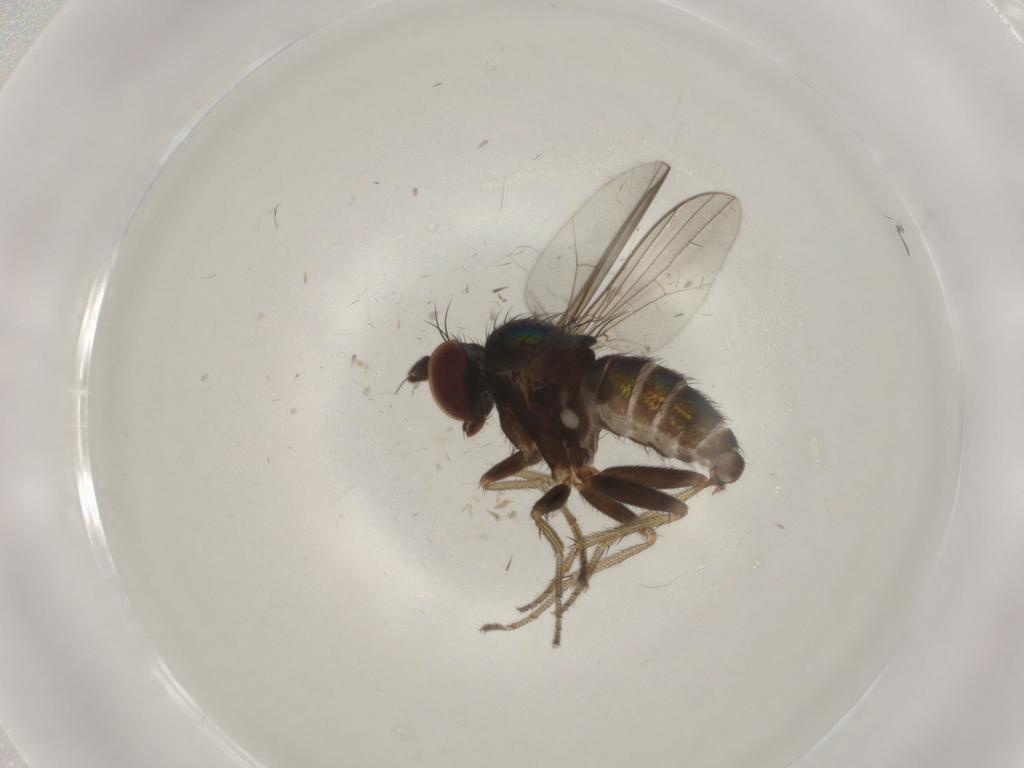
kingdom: Animalia
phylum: Arthropoda
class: Insecta
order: Diptera
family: Dolichopodidae
